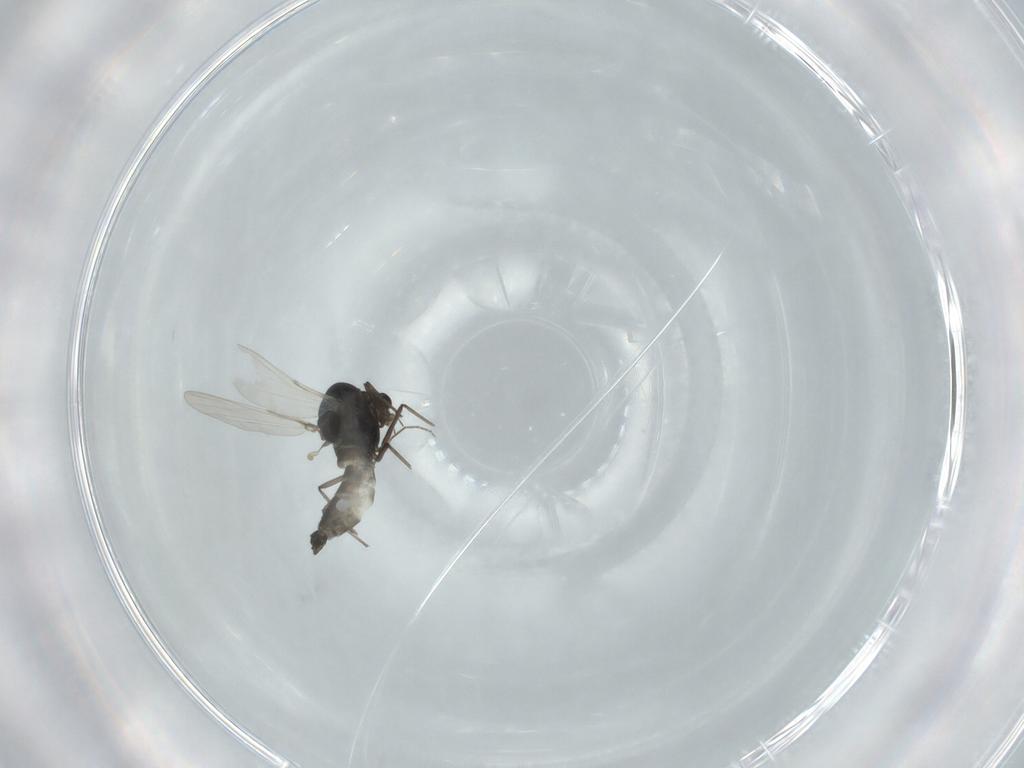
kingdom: Animalia
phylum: Arthropoda
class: Insecta
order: Diptera
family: Chironomidae
